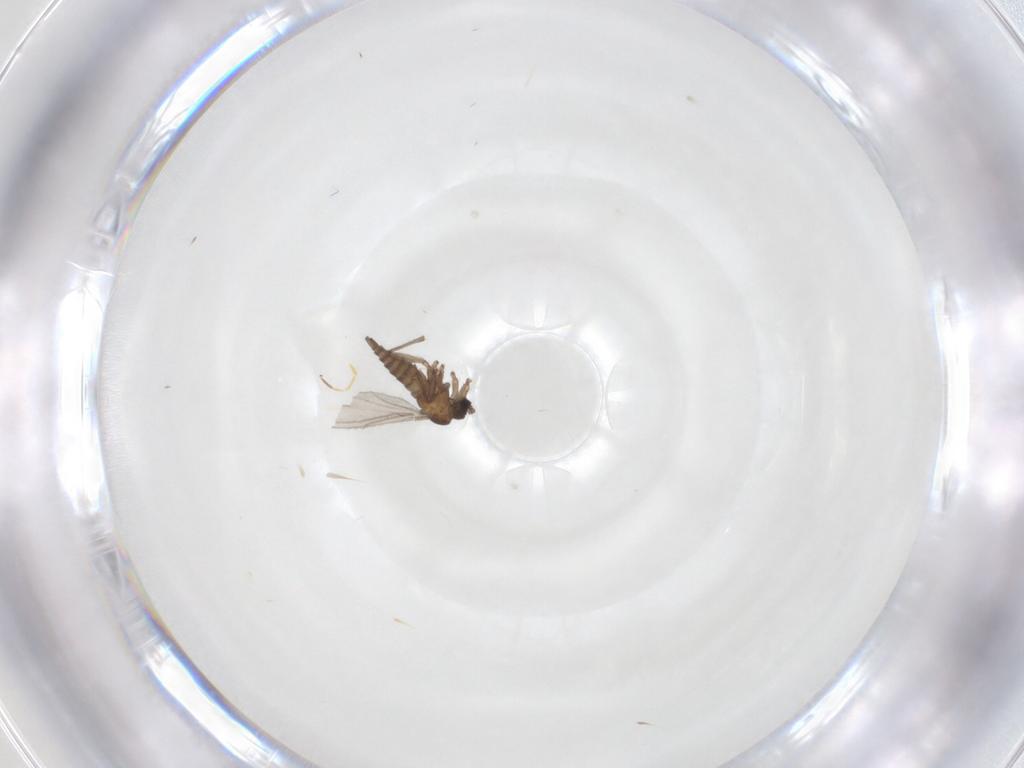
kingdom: Animalia
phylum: Arthropoda
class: Insecta
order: Diptera
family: Sciaridae
